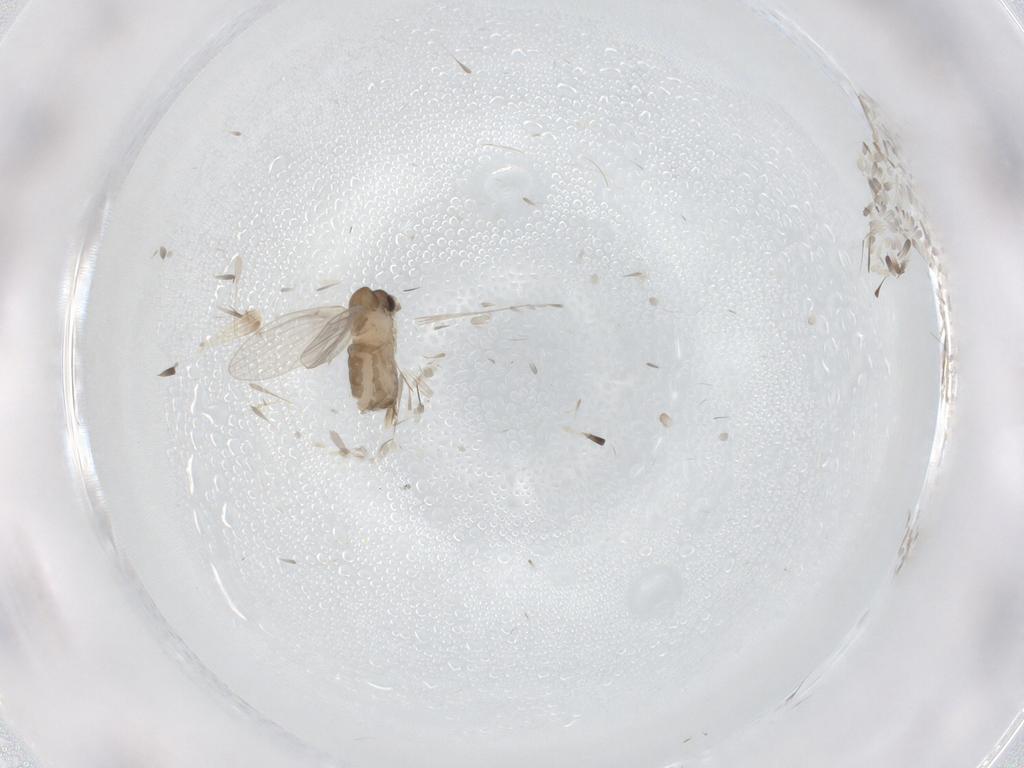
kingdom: Animalia
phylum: Arthropoda
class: Insecta
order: Diptera
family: Psychodidae
